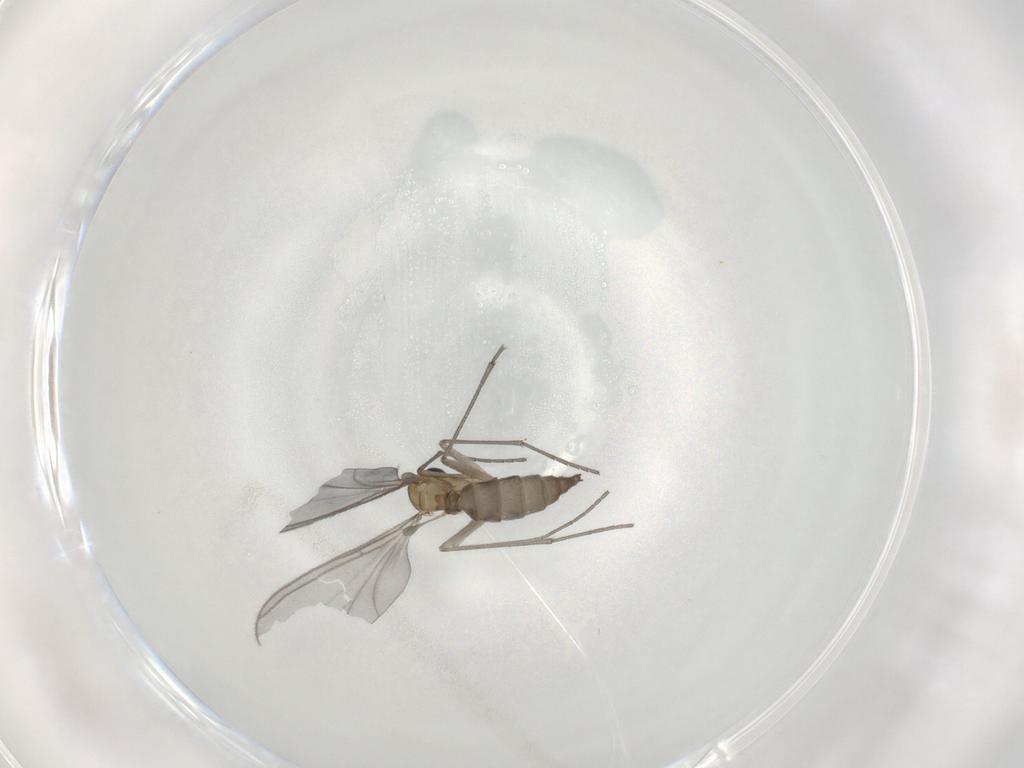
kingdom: Animalia
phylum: Arthropoda
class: Insecta
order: Diptera
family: Sciaridae
